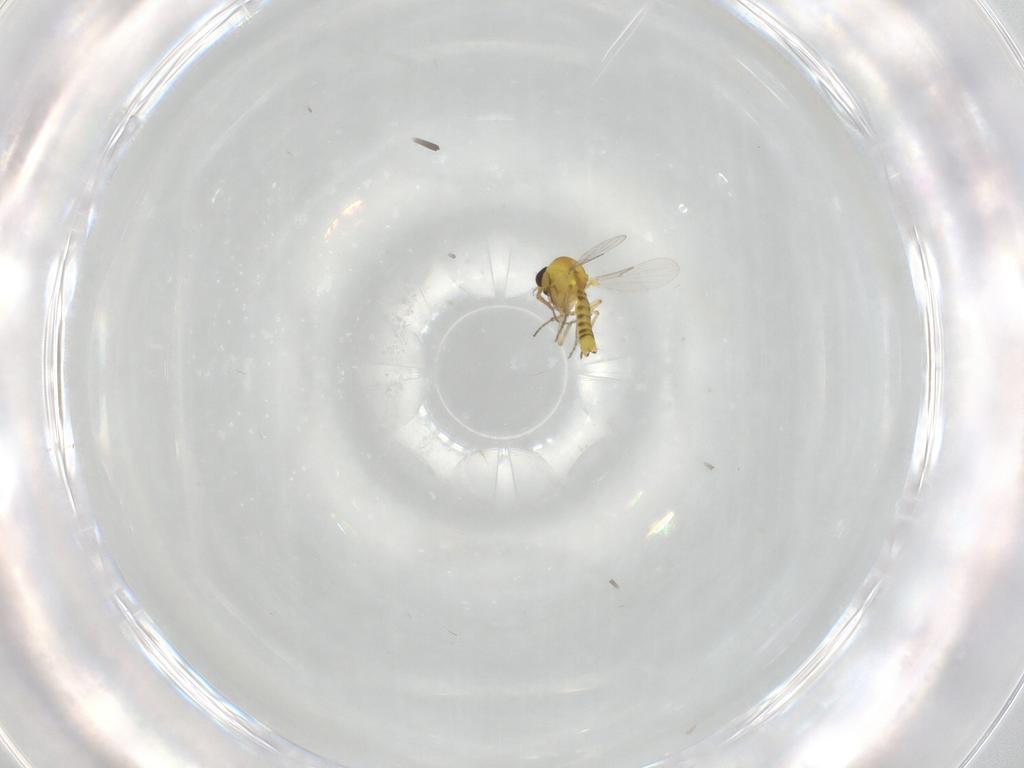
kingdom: Animalia
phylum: Arthropoda
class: Insecta
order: Diptera
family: Ceratopogonidae
